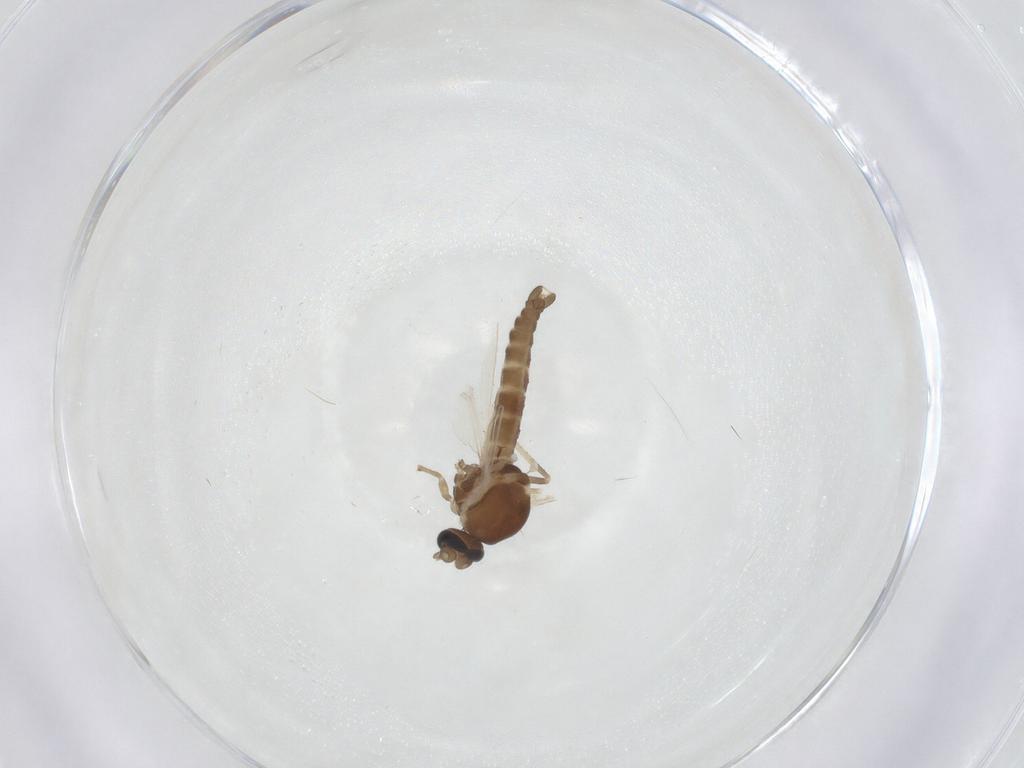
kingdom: Animalia
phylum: Arthropoda
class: Insecta
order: Diptera
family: Ceratopogonidae
